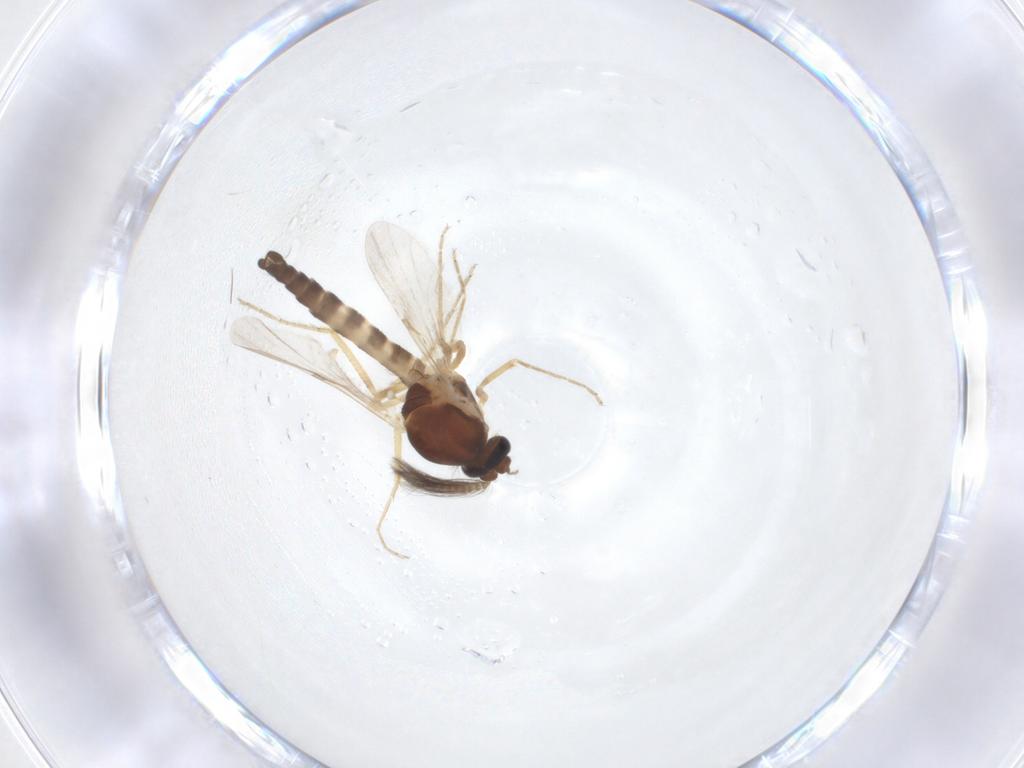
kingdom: Animalia
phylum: Arthropoda
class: Insecta
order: Diptera
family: Ceratopogonidae
